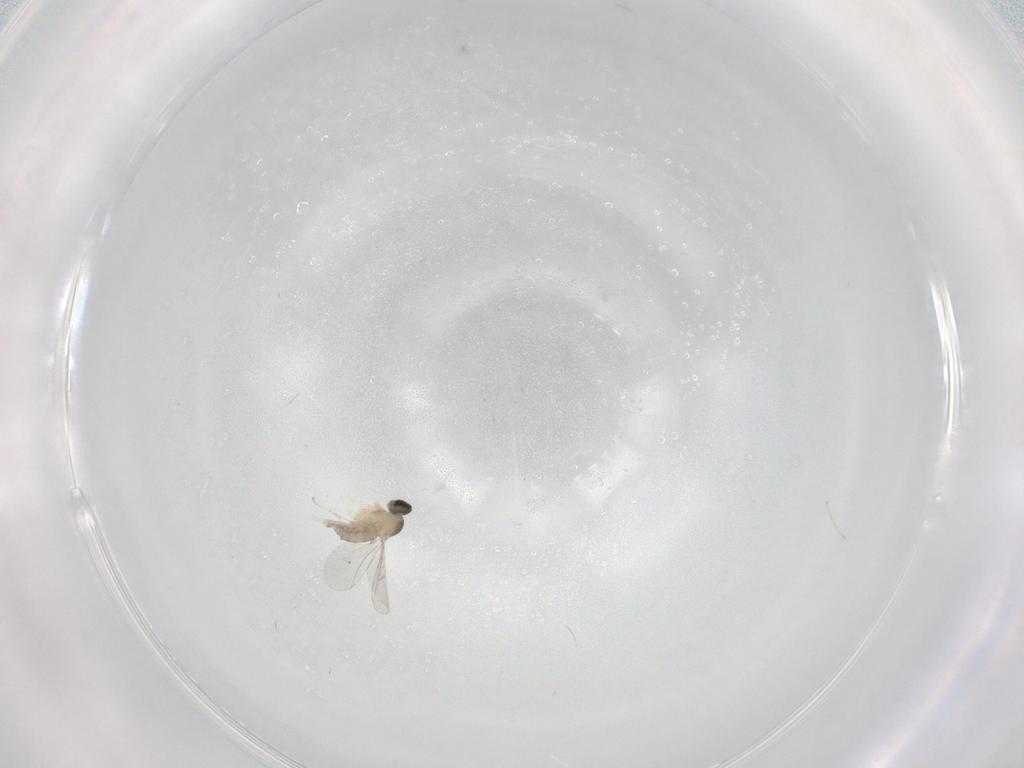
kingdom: Animalia
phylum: Arthropoda
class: Insecta
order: Diptera
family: Cecidomyiidae
